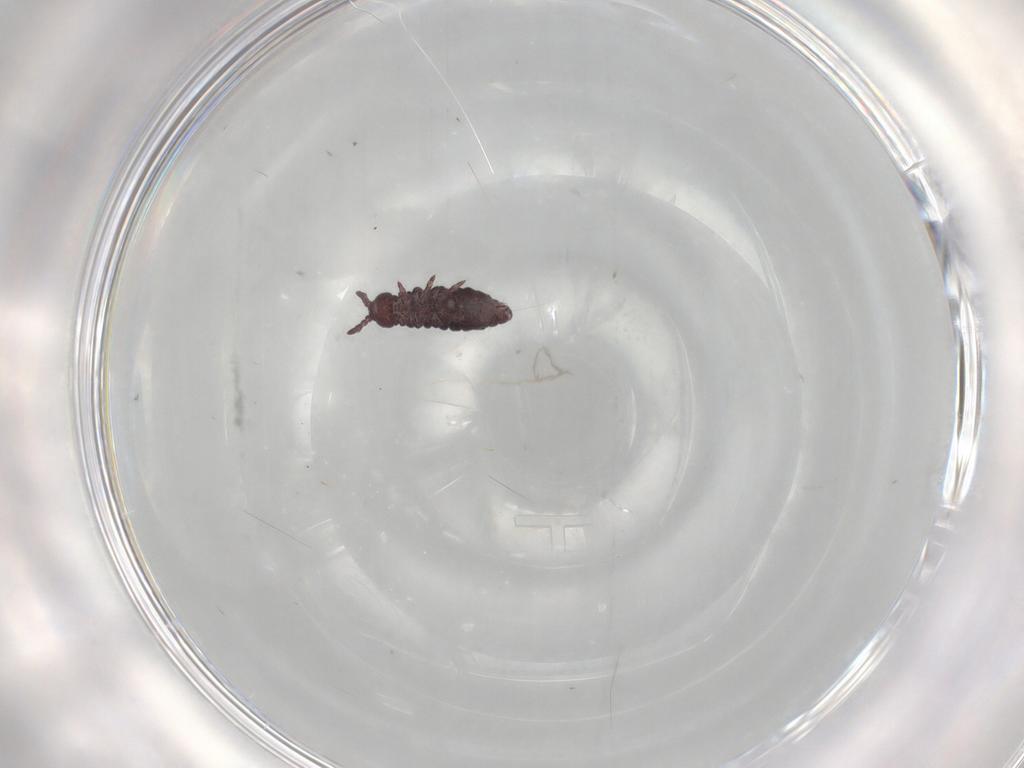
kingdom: Animalia
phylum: Arthropoda
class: Collembola
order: Poduromorpha
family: Hypogastruridae
